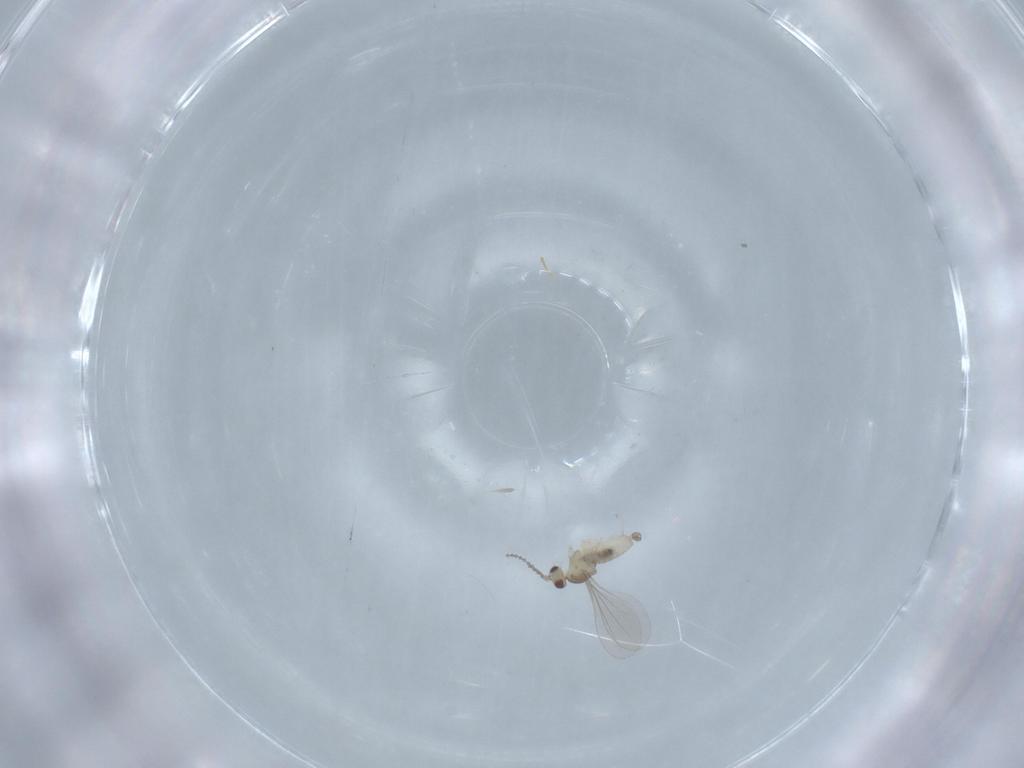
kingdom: Animalia
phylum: Arthropoda
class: Insecta
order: Diptera
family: Cecidomyiidae
